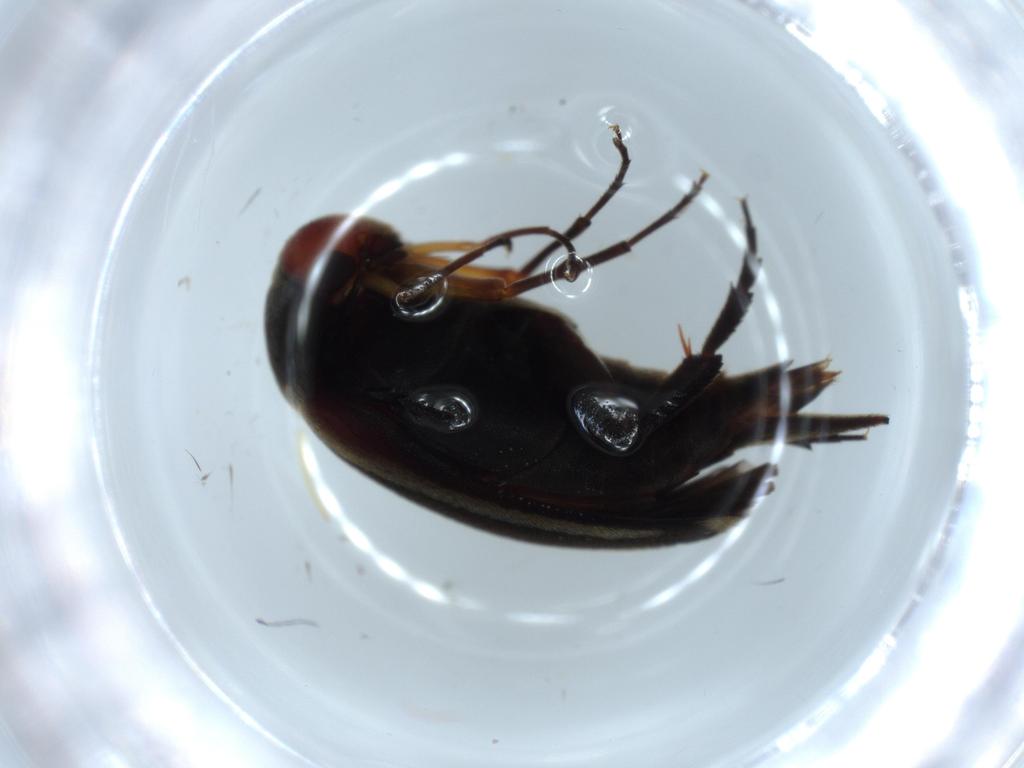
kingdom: Animalia
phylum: Arthropoda
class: Insecta
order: Coleoptera
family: Mordellidae
